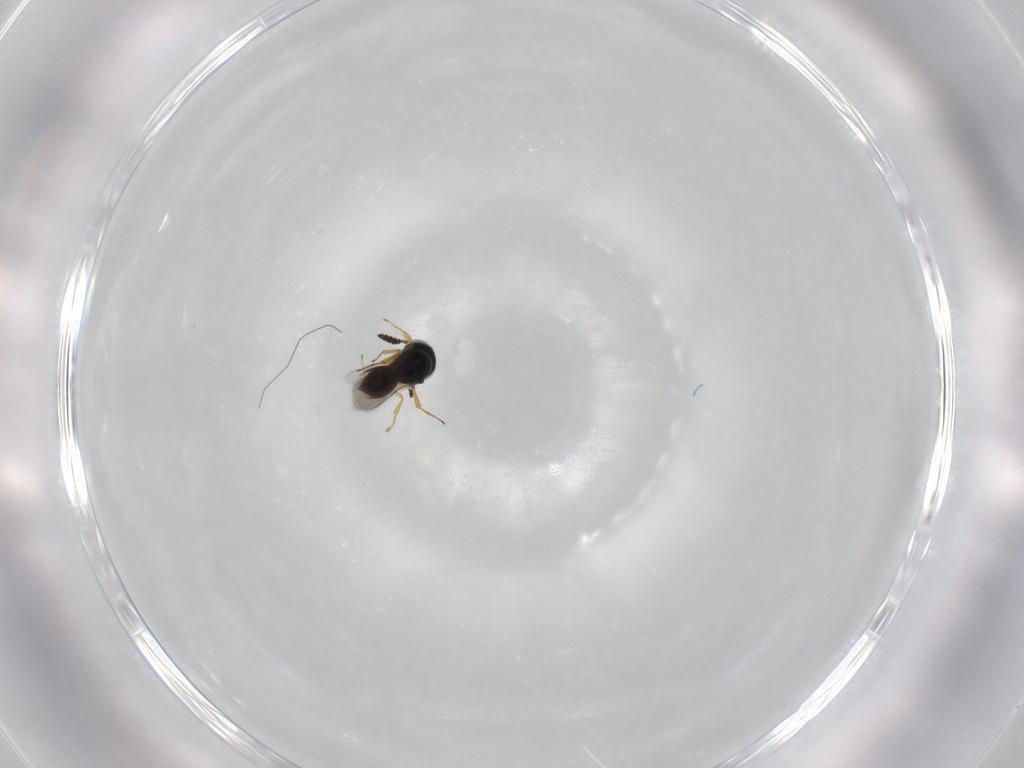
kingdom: Animalia
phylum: Arthropoda
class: Insecta
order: Hymenoptera
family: Scelionidae
